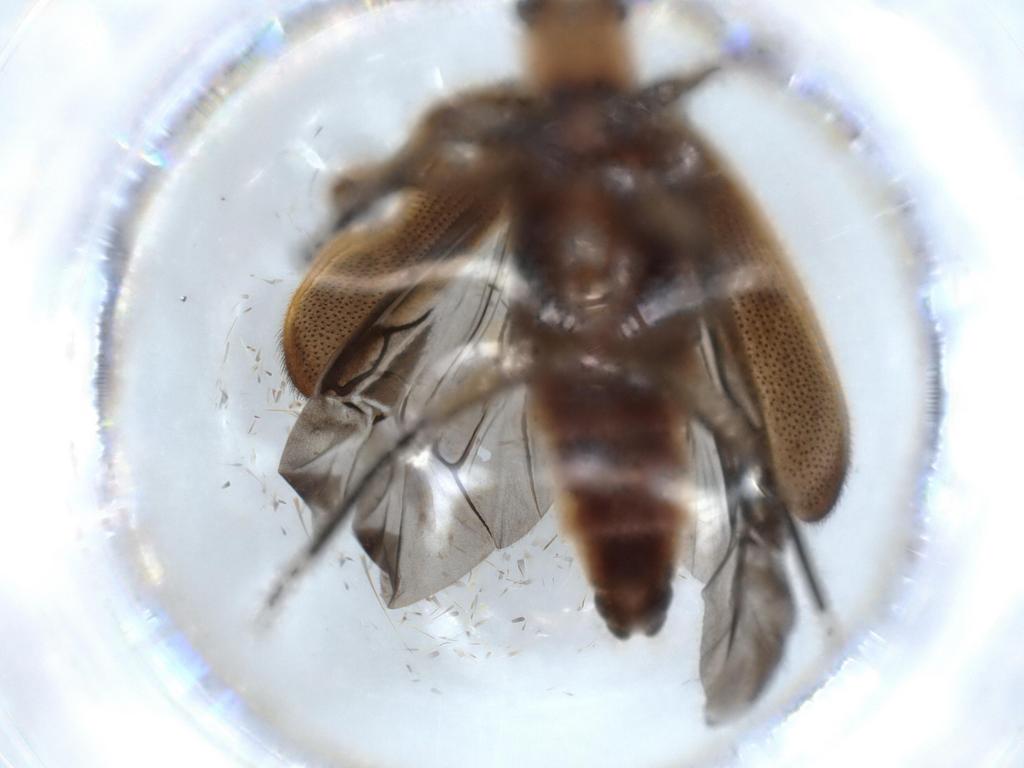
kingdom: Animalia
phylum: Arthropoda
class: Insecta
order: Coleoptera
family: Cleridae
